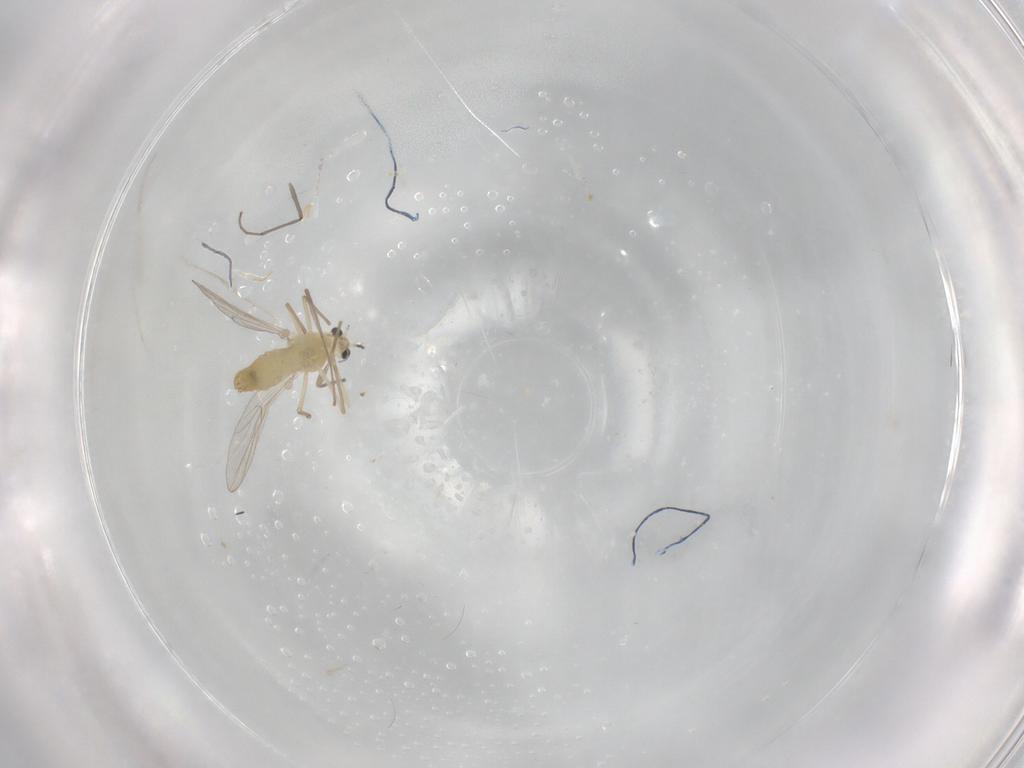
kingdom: Animalia
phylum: Arthropoda
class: Insecta
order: Diptera
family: Chironomidae
